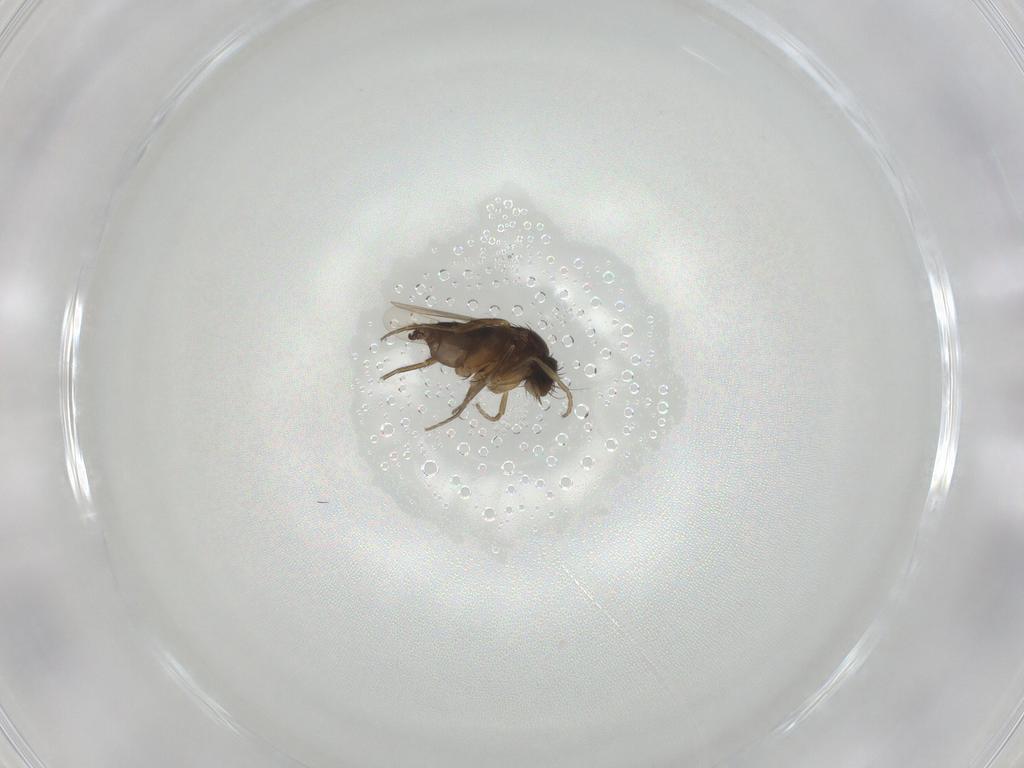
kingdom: Animalia
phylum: Arthropoda
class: Insecta
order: Diptera
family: Phoridae
